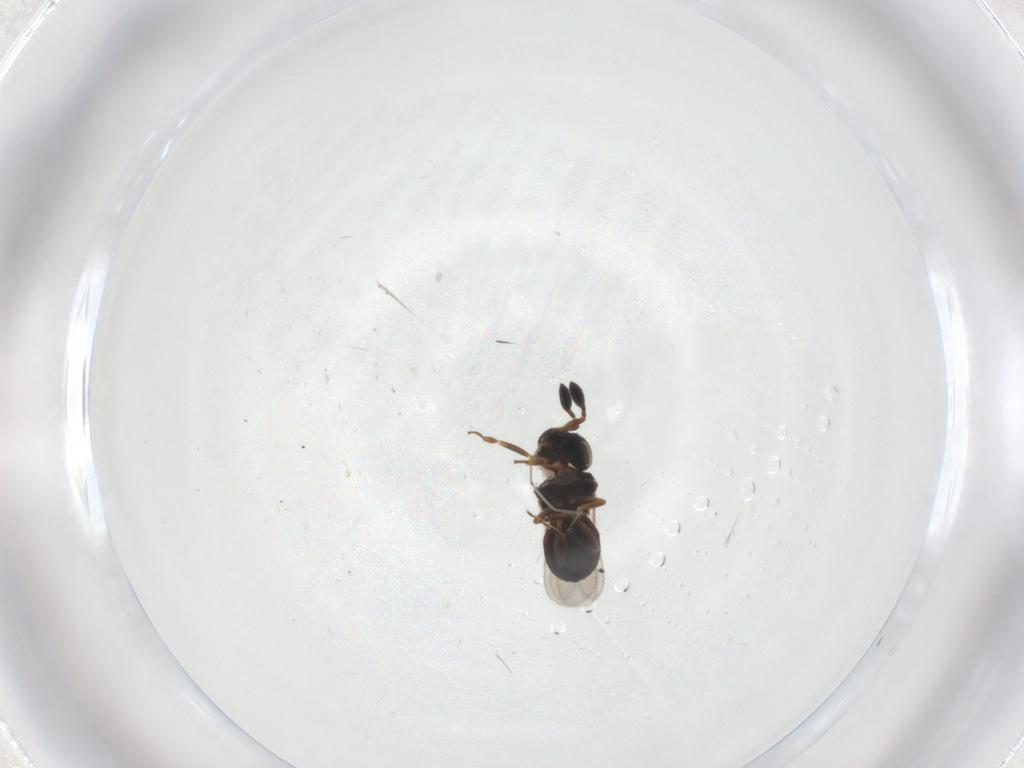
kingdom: Animalia
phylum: Arthropoda
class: Insecta
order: Hymenoptera
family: Scelionidae
